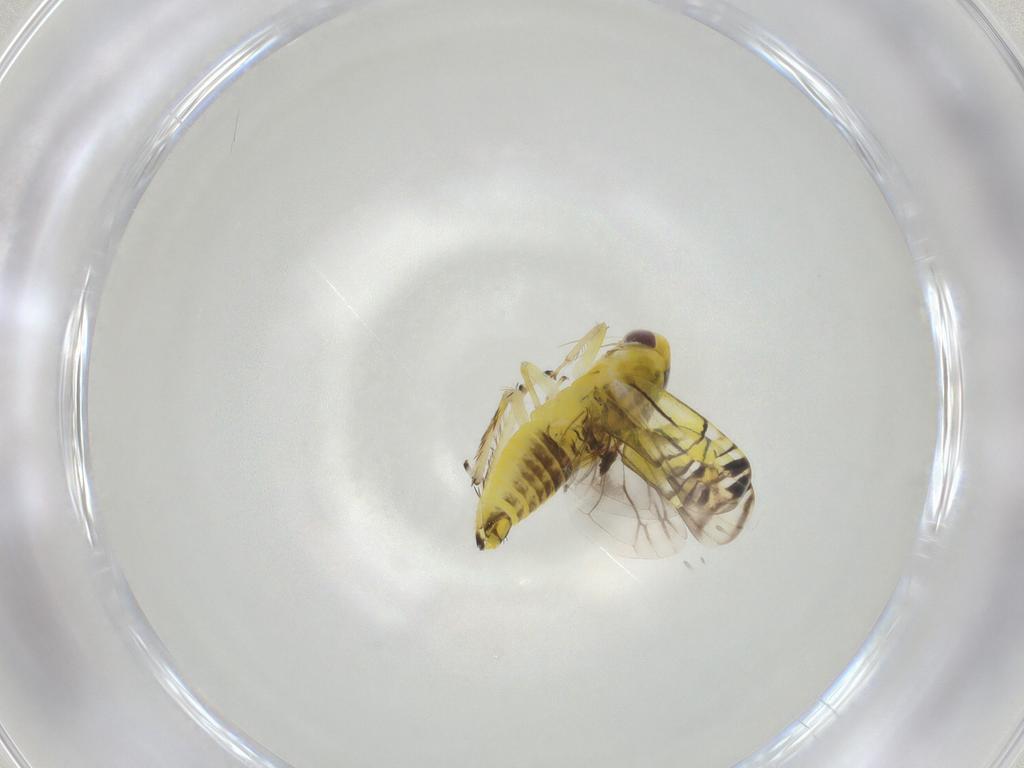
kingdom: Animalia
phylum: Arthropoda
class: Insecta
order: Hemiptera
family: Cicadellidae
